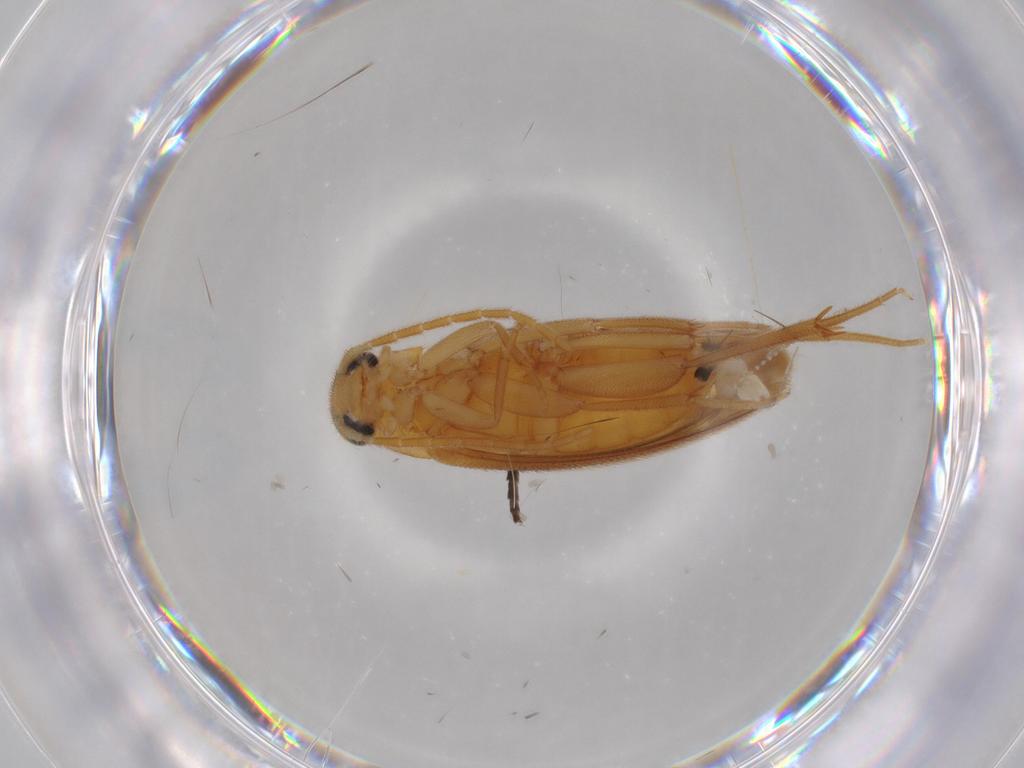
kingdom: Animalia
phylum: Arthropoda
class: Insecta
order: Coleoptera
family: Scraptiidae
